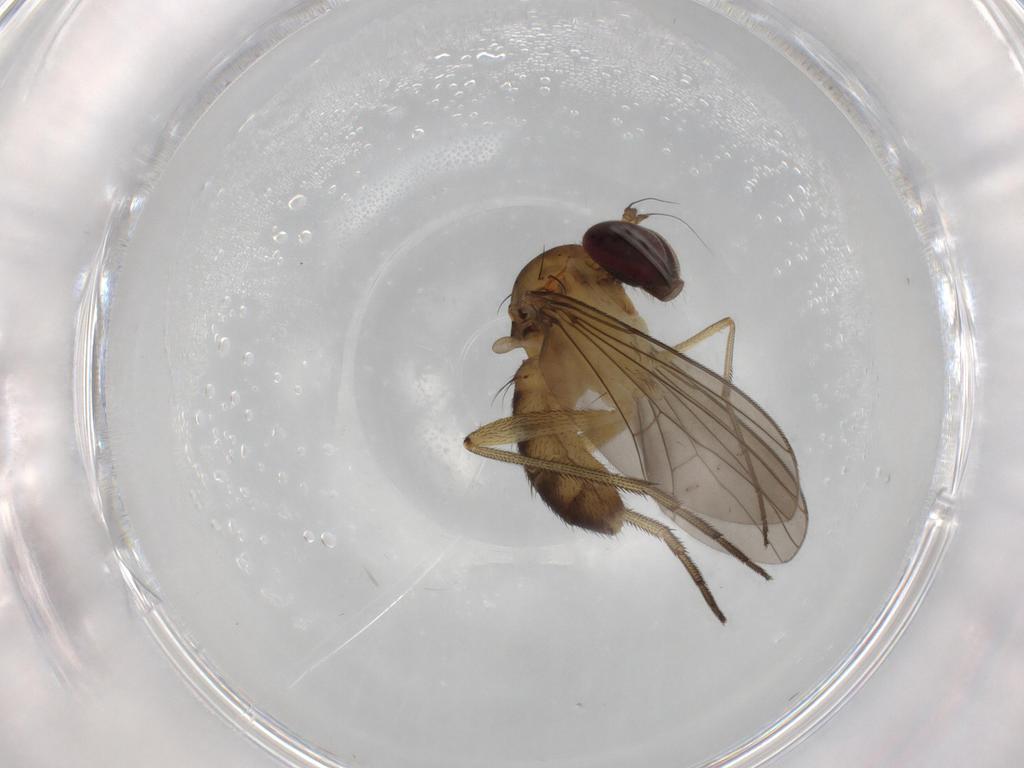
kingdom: Animalia
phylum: Arthropoda
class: Insecta
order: Diptera
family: Dolichopodidae
